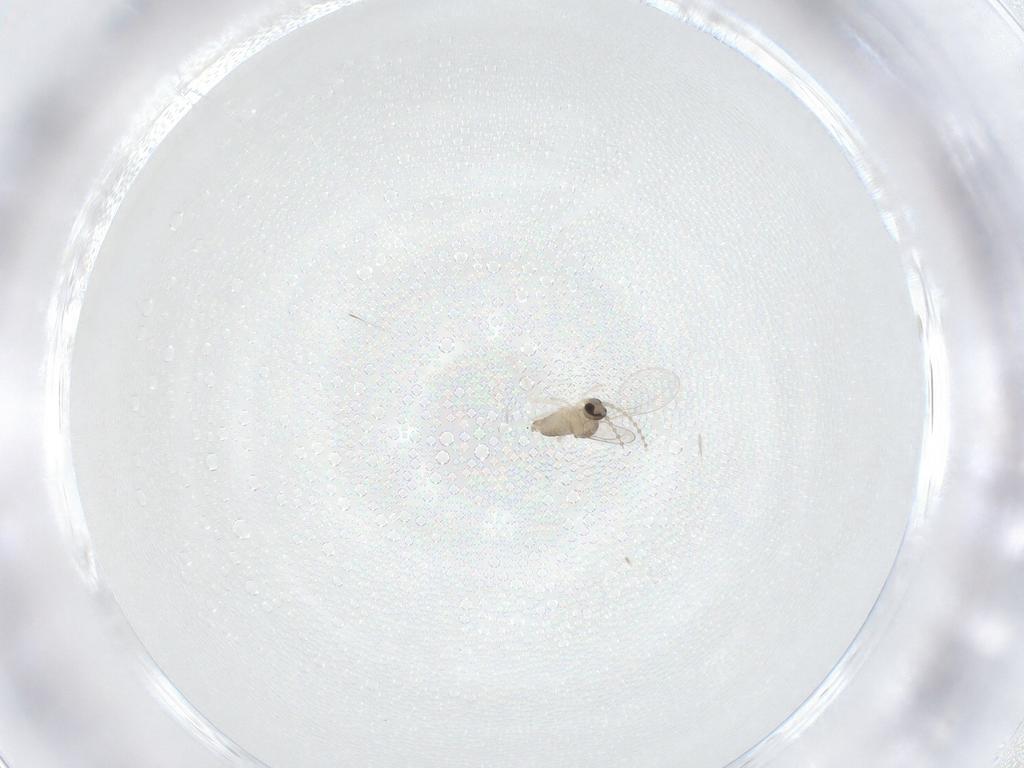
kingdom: Animalia
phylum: Arthropoda
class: Insecta
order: Diptera
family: Cecidomyiidae
